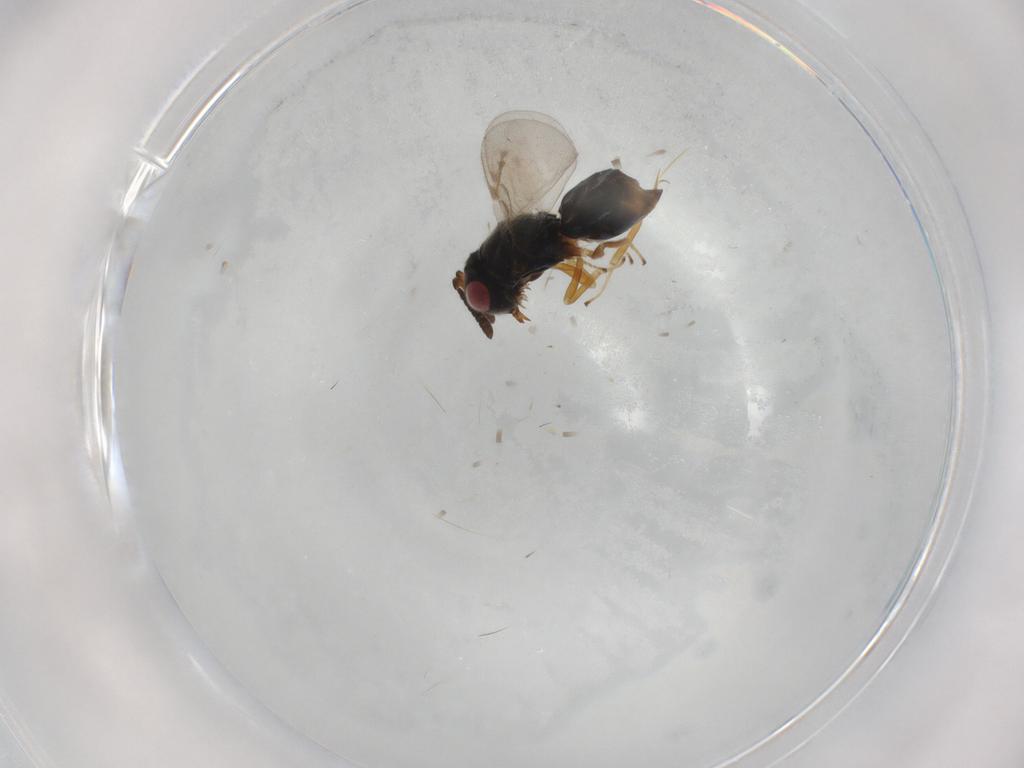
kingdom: Animalia
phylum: Arthropoda
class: Insecta
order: Hymenoptera
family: Pteromalidae
